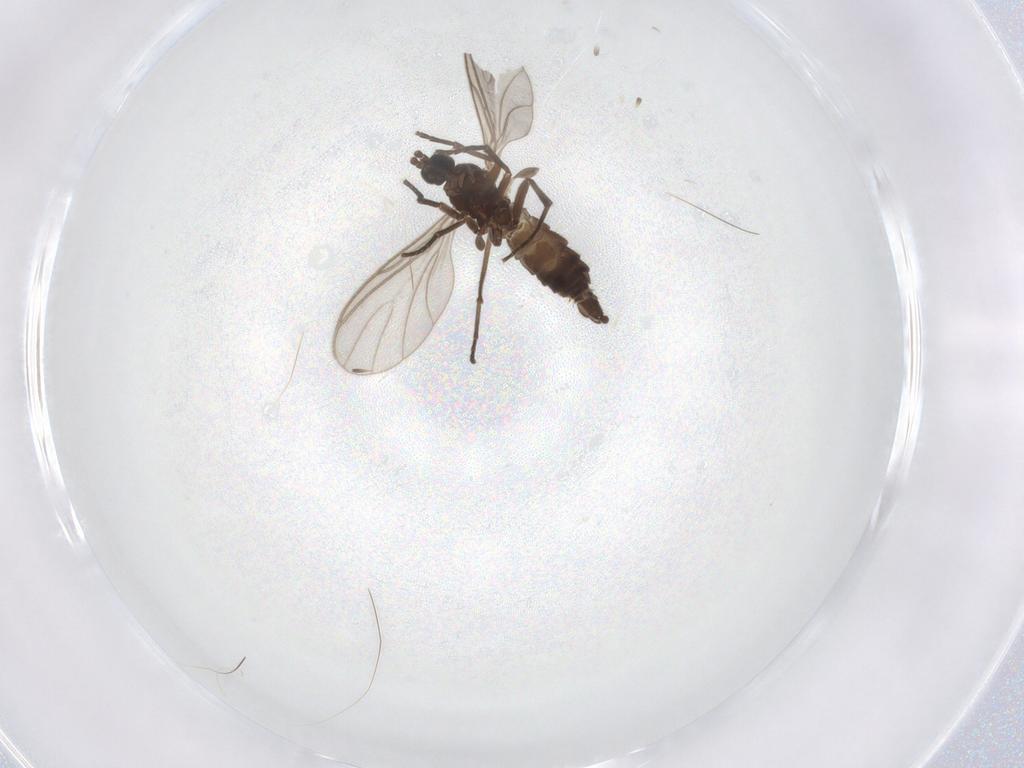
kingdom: Animalia
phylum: Arthropoda
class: Insecta
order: Diptera
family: Sciaridae
